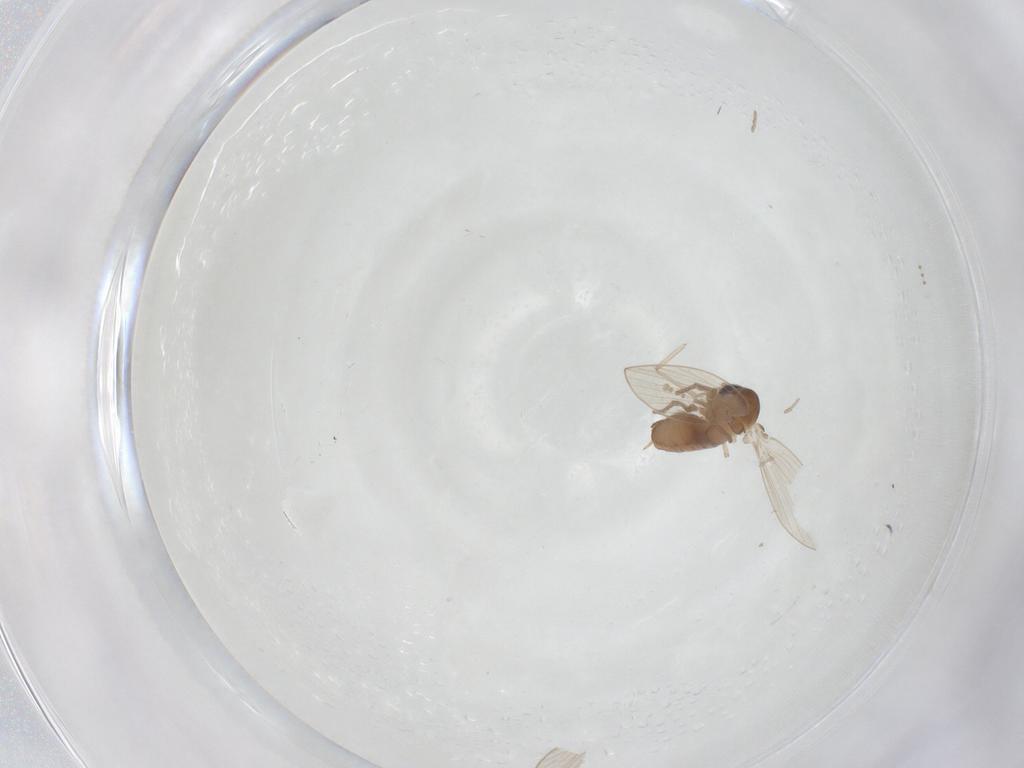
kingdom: Animalia
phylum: Arthropoda
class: Insecta
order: Diptera
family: Psychodidae
